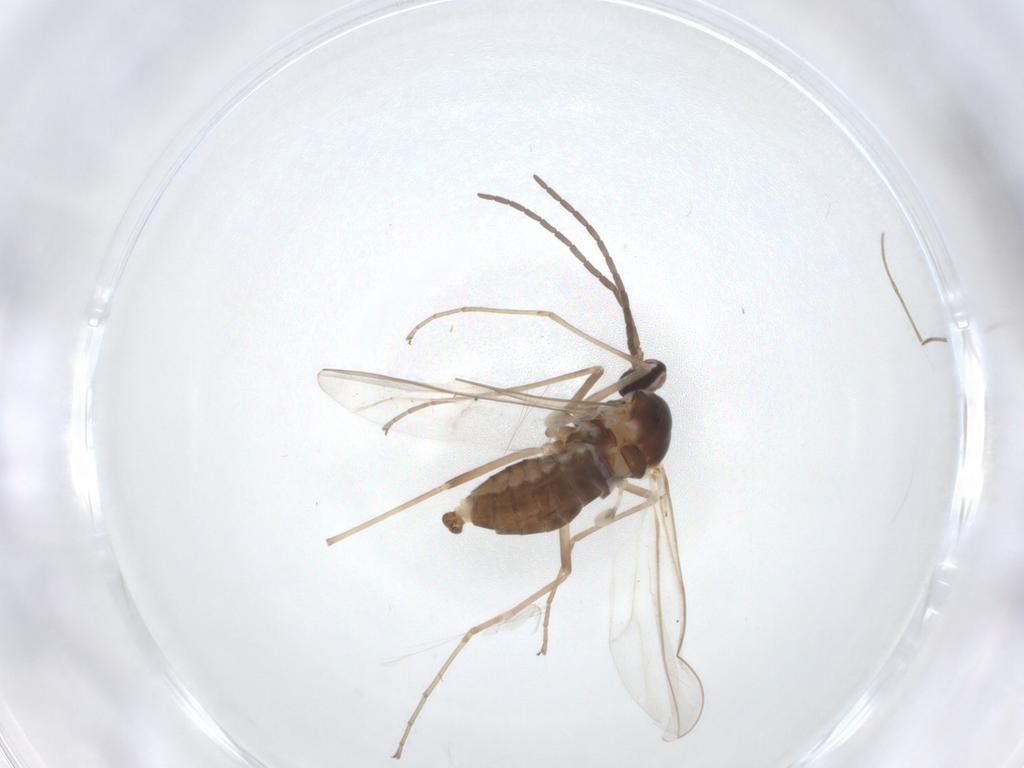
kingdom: Animalia
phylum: Arthropoda
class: Insecta
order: Diptera
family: Cecidomyiidae
